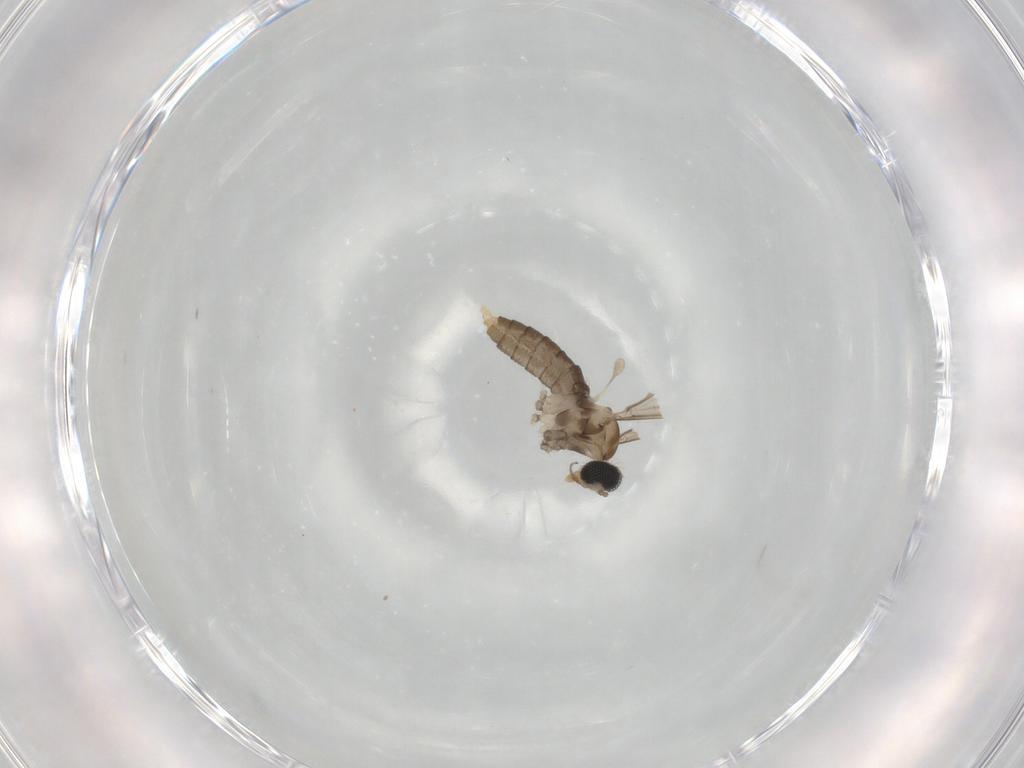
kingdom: Animalia
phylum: Arthropoda
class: Insecta
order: Diptera
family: Cecidomyiidae
